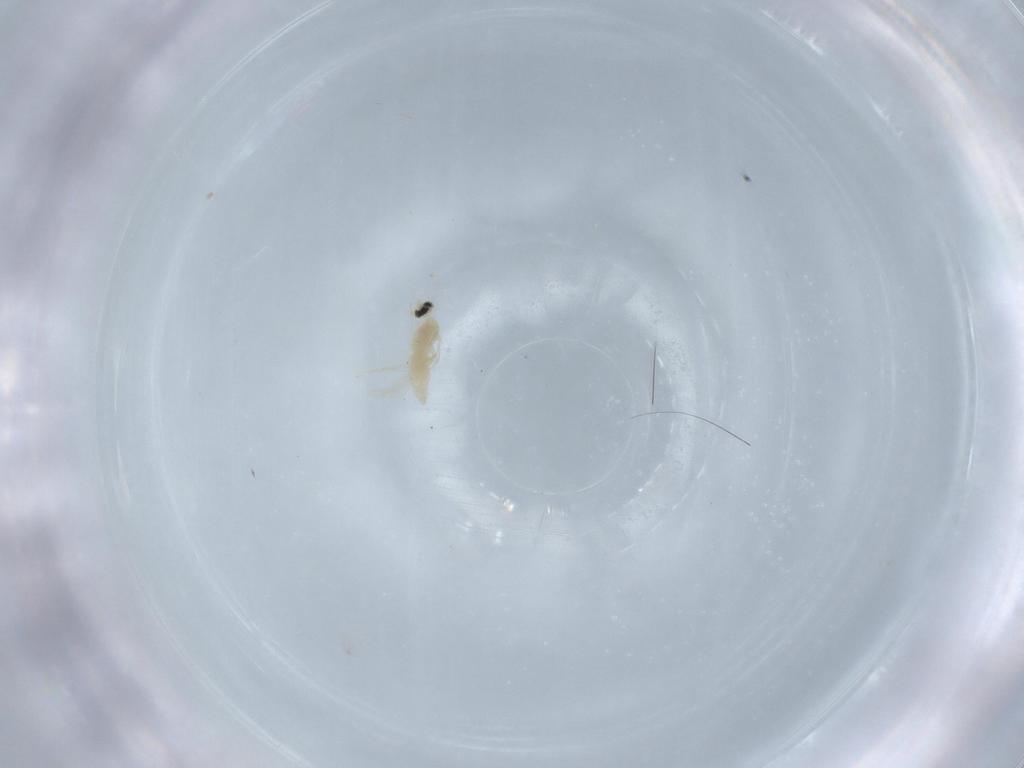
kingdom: Animalia
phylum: Arthropoda
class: Insecta
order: Diptera
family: Cecidomyiidae
